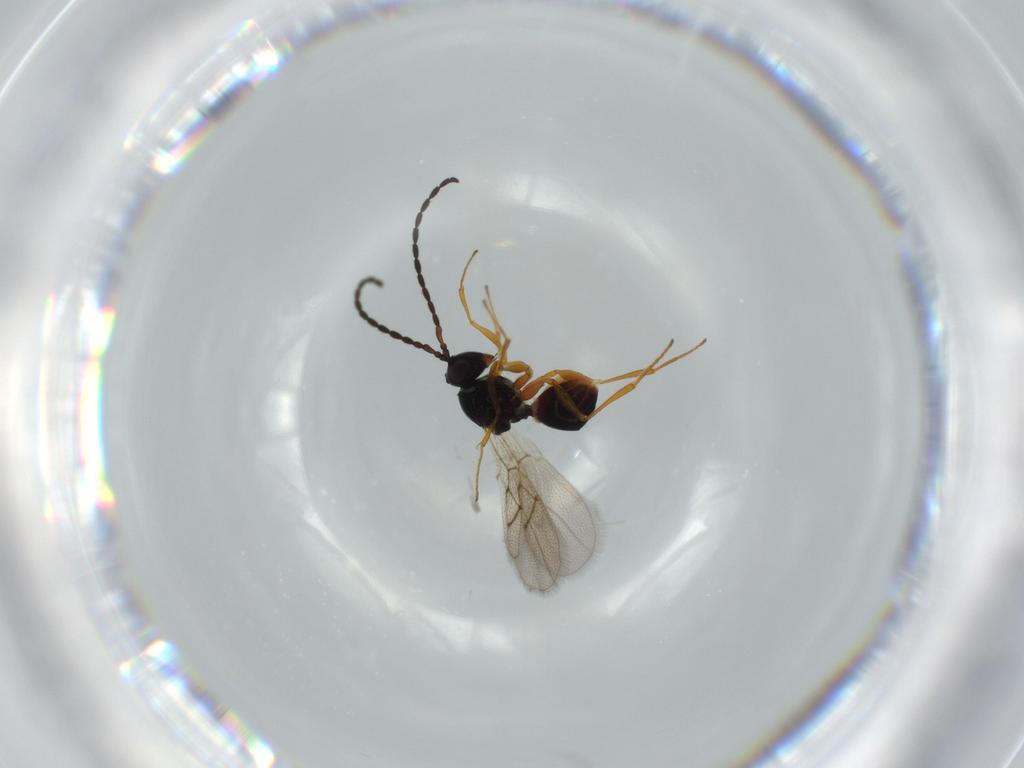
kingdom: Animalia
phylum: Arthropoda
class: Insecta
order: Hymenoptera
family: Figitidae
